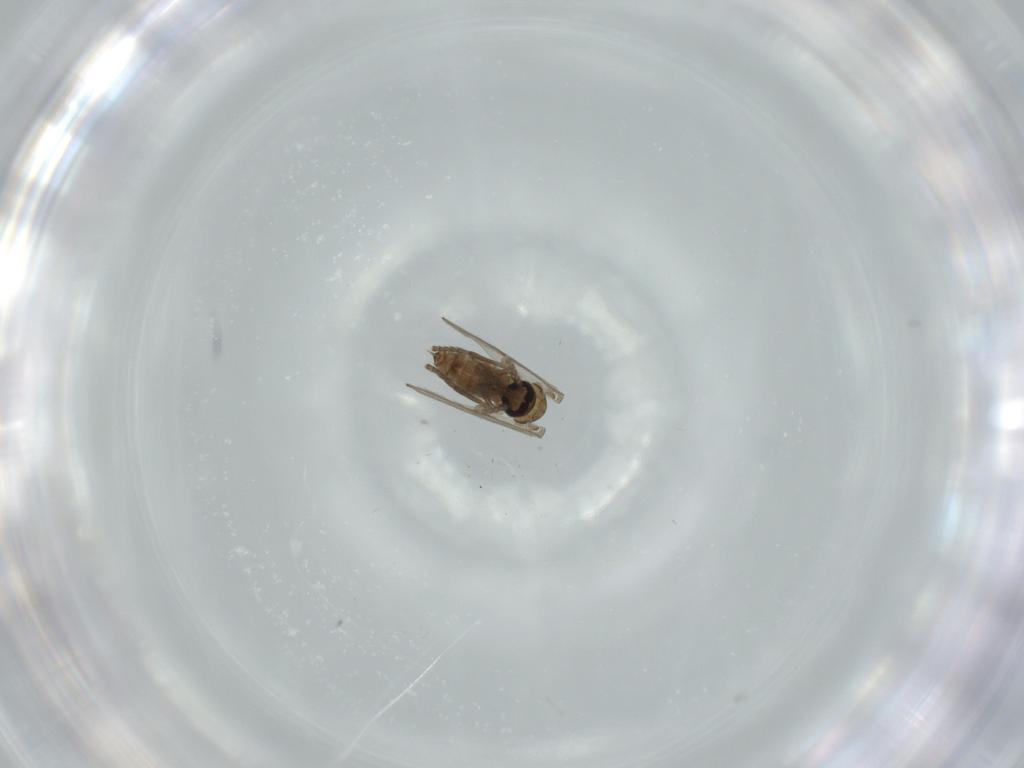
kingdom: Animalia
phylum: Arthropoda
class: Insecta
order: Diptera
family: Psychodidae
